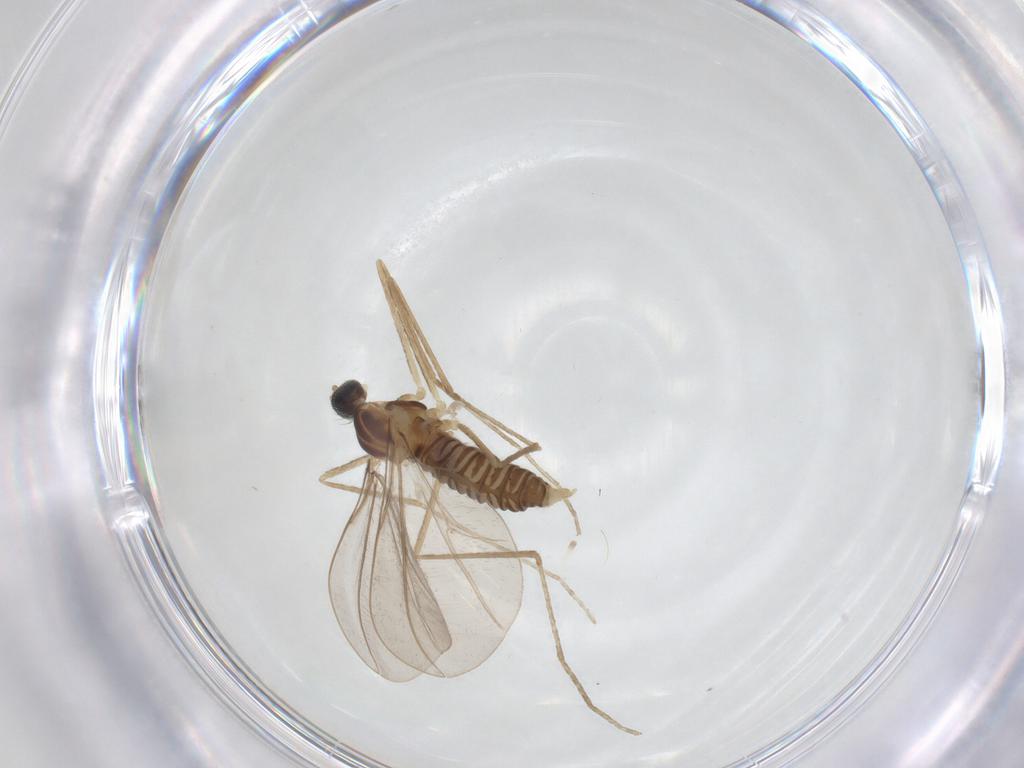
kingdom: Animalia
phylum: Arthropoda
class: Insecta
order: Diptera
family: Cecidomyiidae
